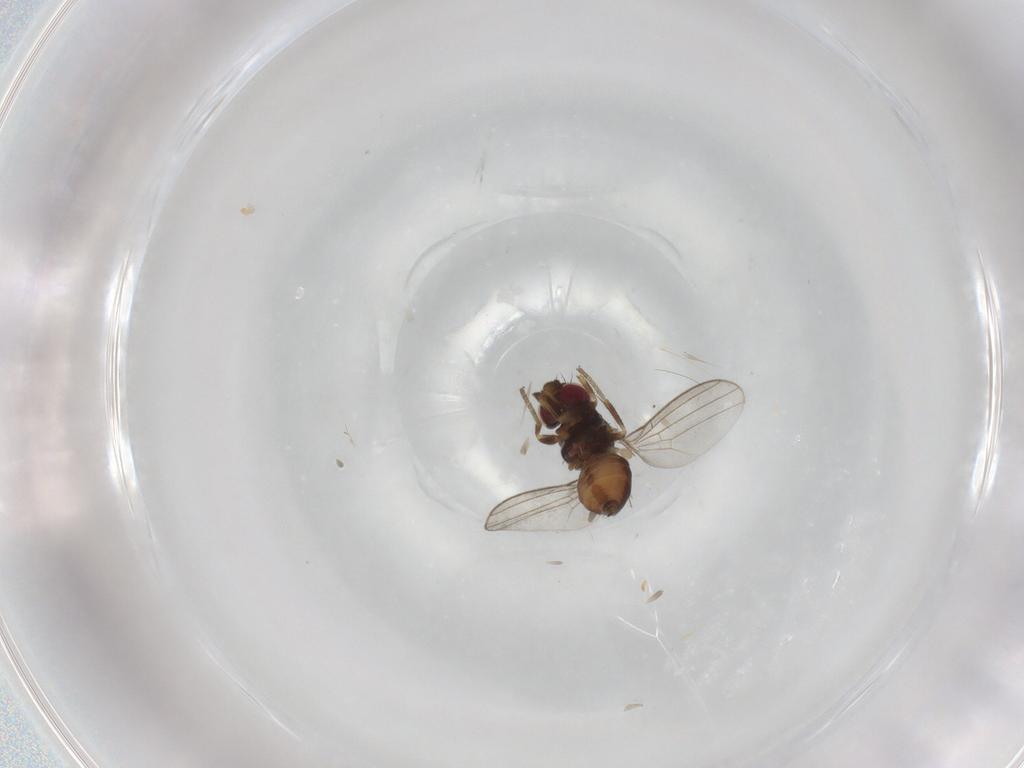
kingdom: Animalia
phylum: Arthropoda
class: Insecta
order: Diptera
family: Milichiidae
